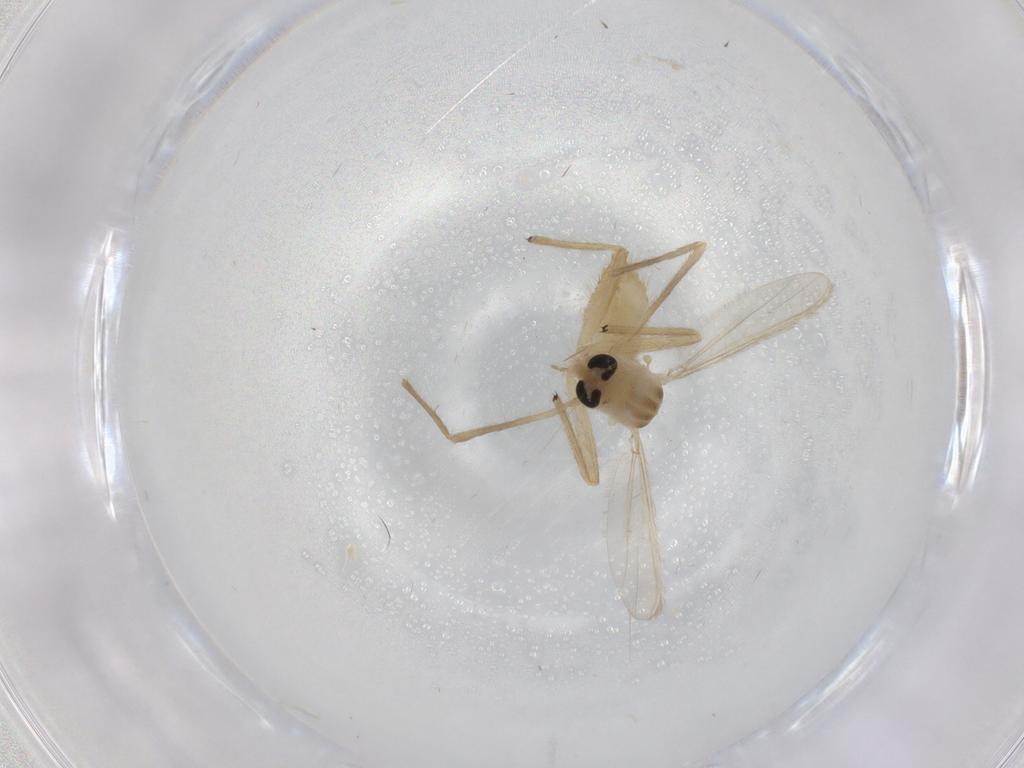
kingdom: Animalia
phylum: Arthropoda
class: Insecta
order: Diptera
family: Chironomidae
